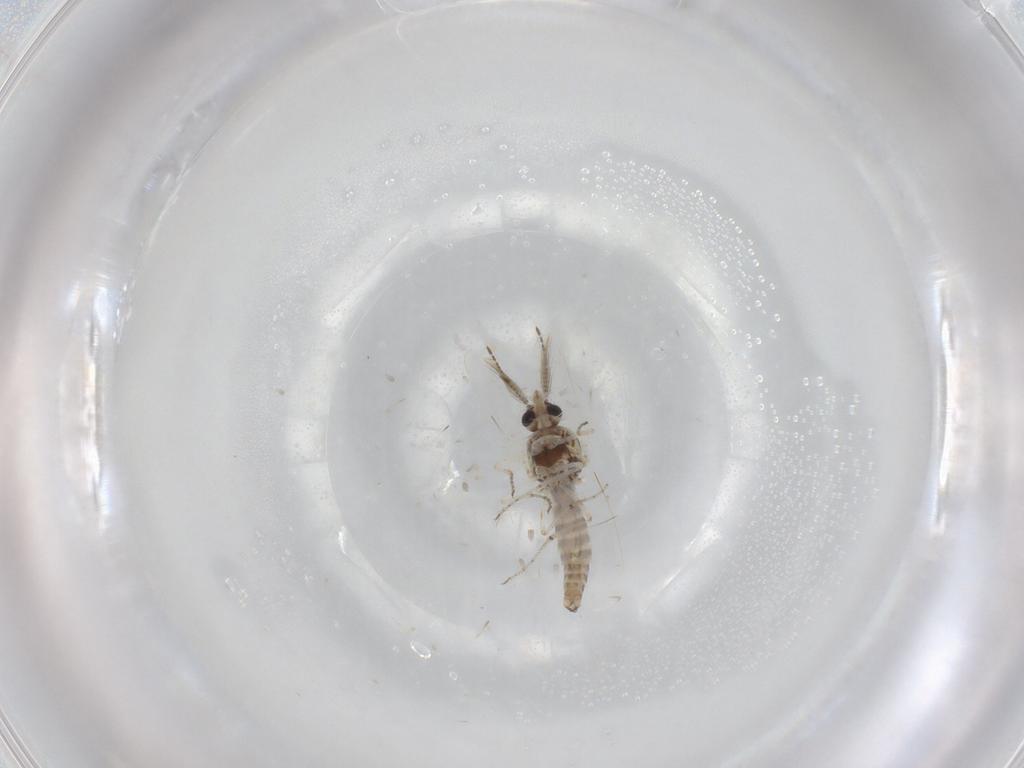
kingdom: Animalia
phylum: Arthropoda
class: Insecta
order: Diptera
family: Ceratopogonidae
